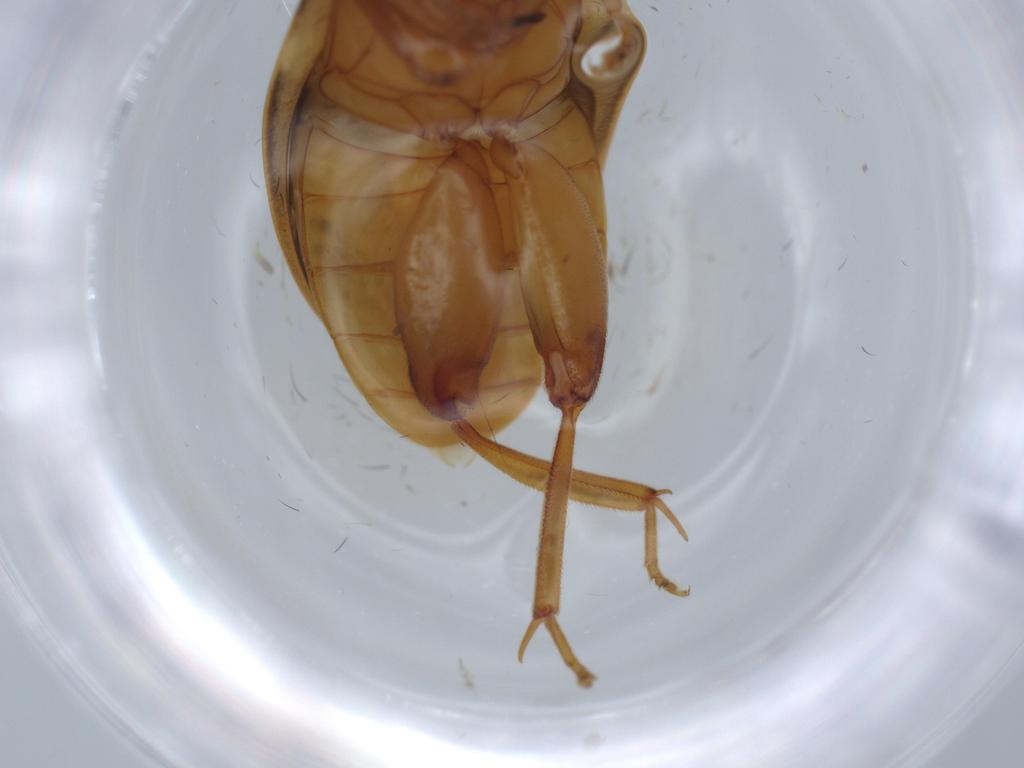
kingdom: Animalia
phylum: Arthropoda
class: Insecta
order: Coleoptera
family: Scirtidae
